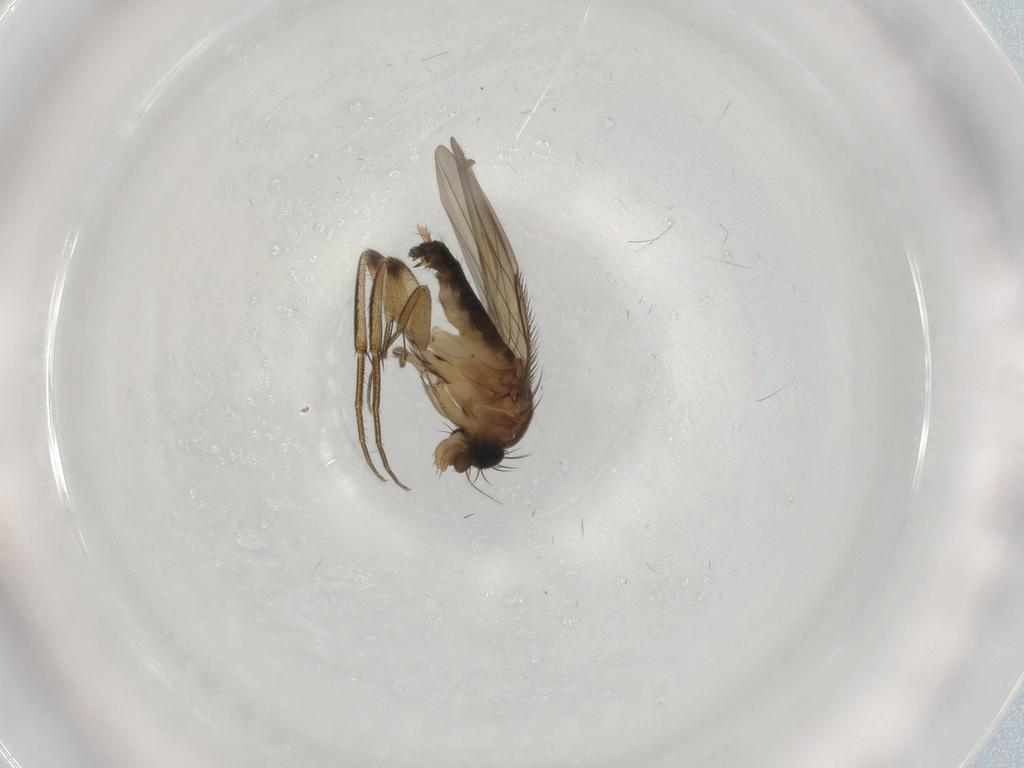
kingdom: Animalia
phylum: Arthropoda
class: Insecta
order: Diptera
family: Phoridae
